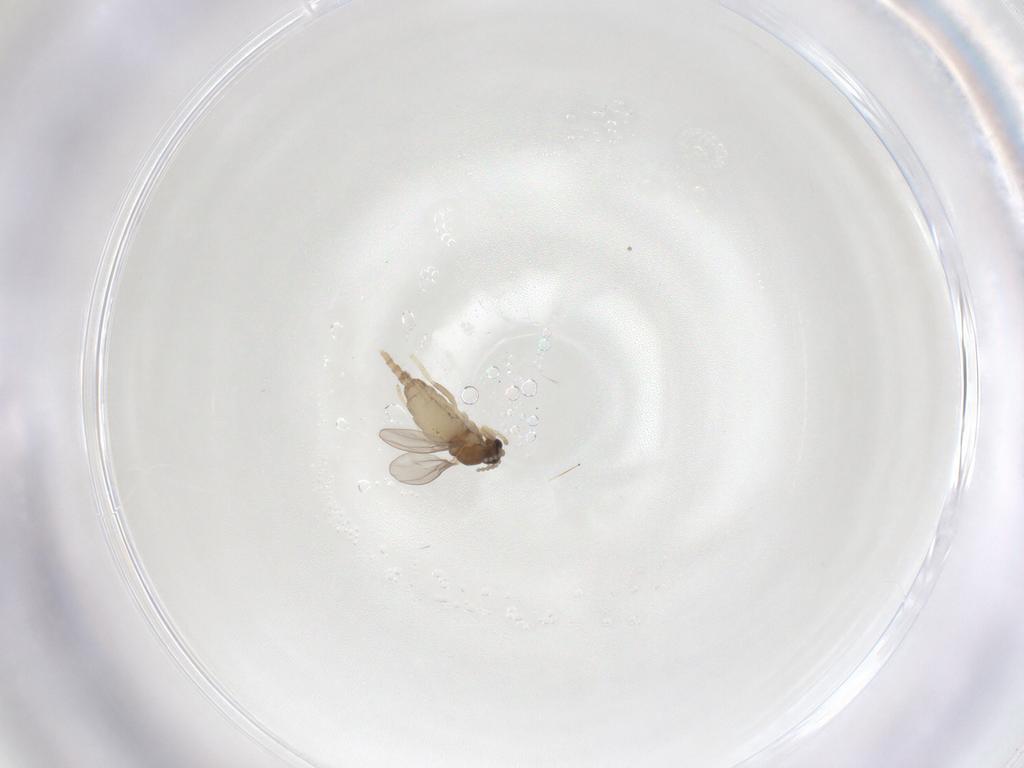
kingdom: Animalia
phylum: Arthropoda
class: Insecta
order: Diptera
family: Cecidomyiidae
